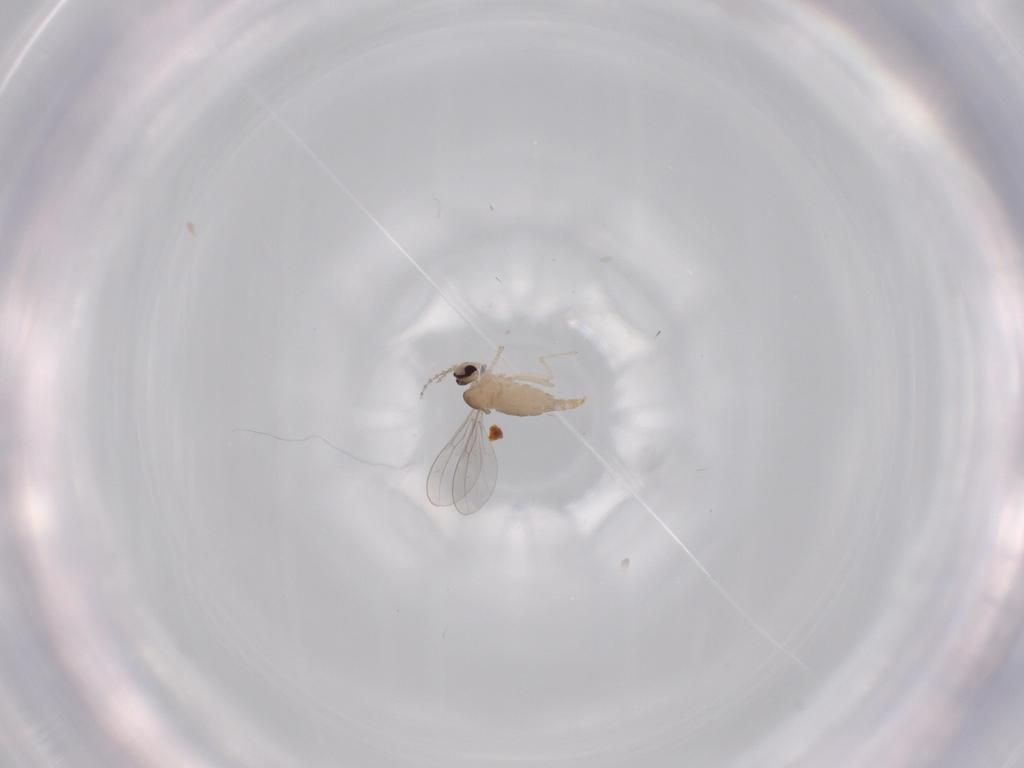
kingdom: Animalia
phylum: Arthropoda
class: Insecta
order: Diptera
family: Cecidomyiidae
